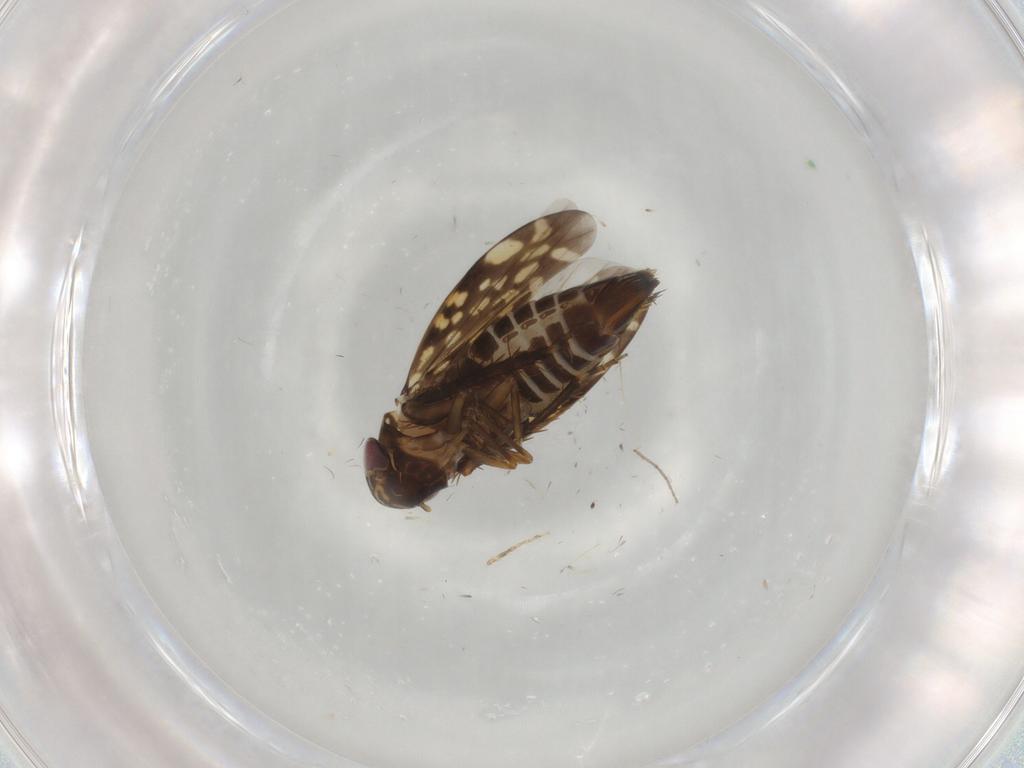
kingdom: Animalia
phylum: Arthropoda
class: Insecta
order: Hemiptera
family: Cicadellidae
